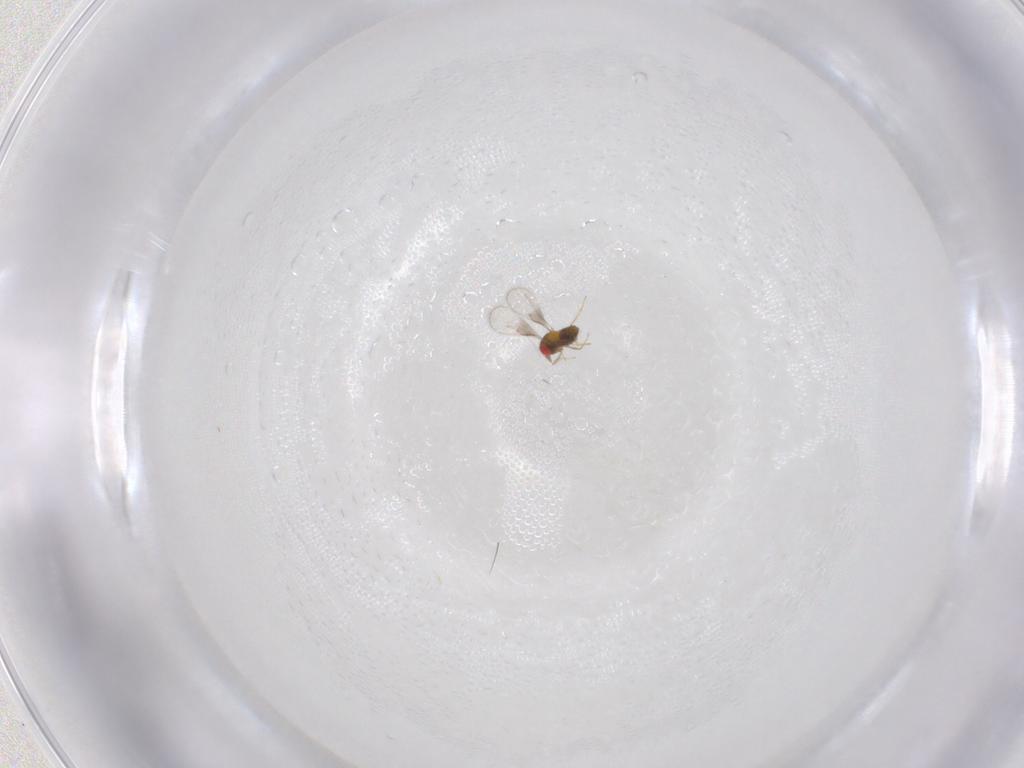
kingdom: Animalia
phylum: Arthropoda
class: Insecta
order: Hymenoptera
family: Trichogrammatidae
